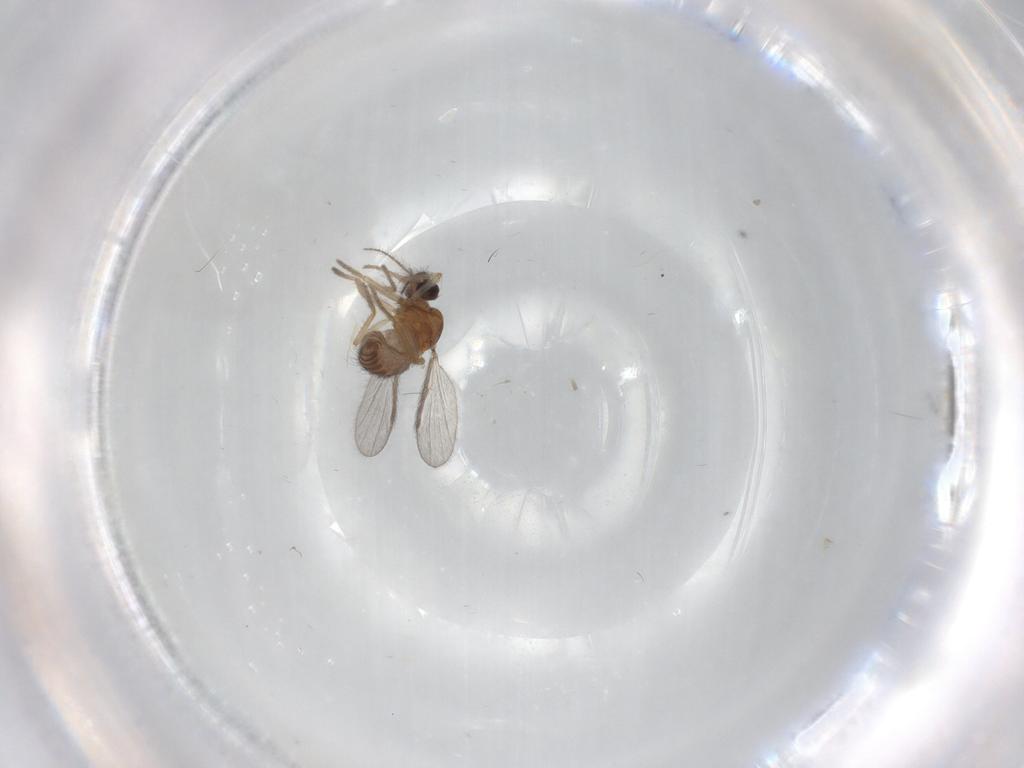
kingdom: Animalia
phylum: Arthropoda
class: Insecta
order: Diptera
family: Ceratopogonidae
